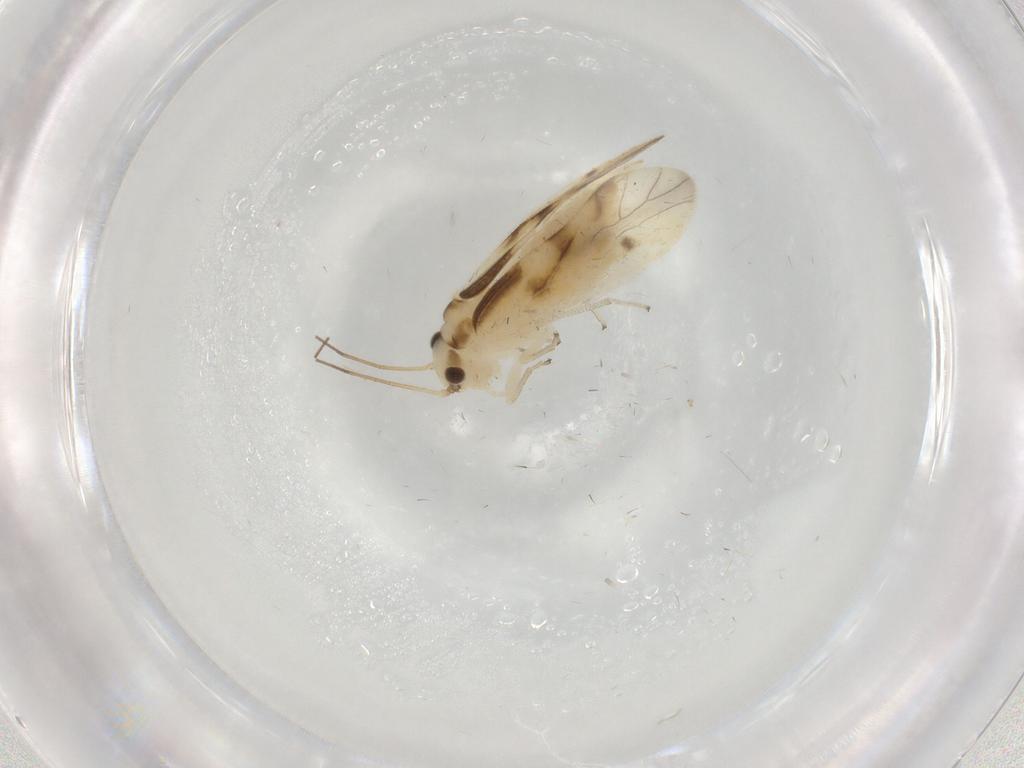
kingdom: Animalia
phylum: Arthropoda
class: Insecta
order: Psocodea
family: Caeciliusidae
